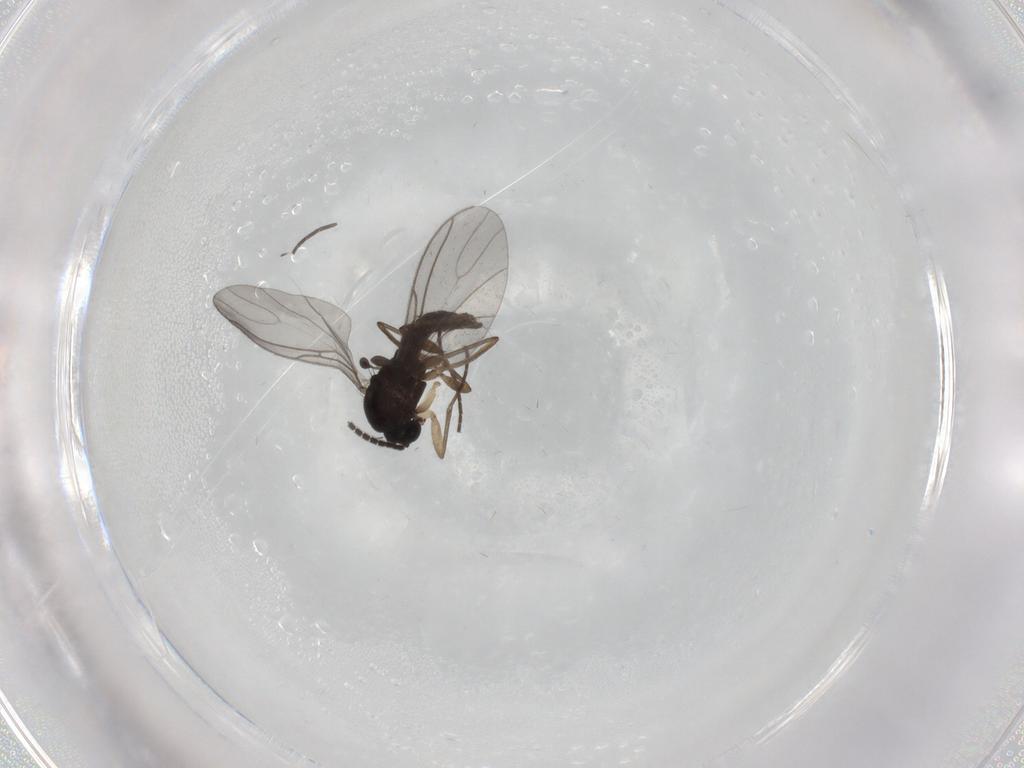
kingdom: Animalia
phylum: Arthropoda
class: Insecta
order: Diptera
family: Sciaridae
